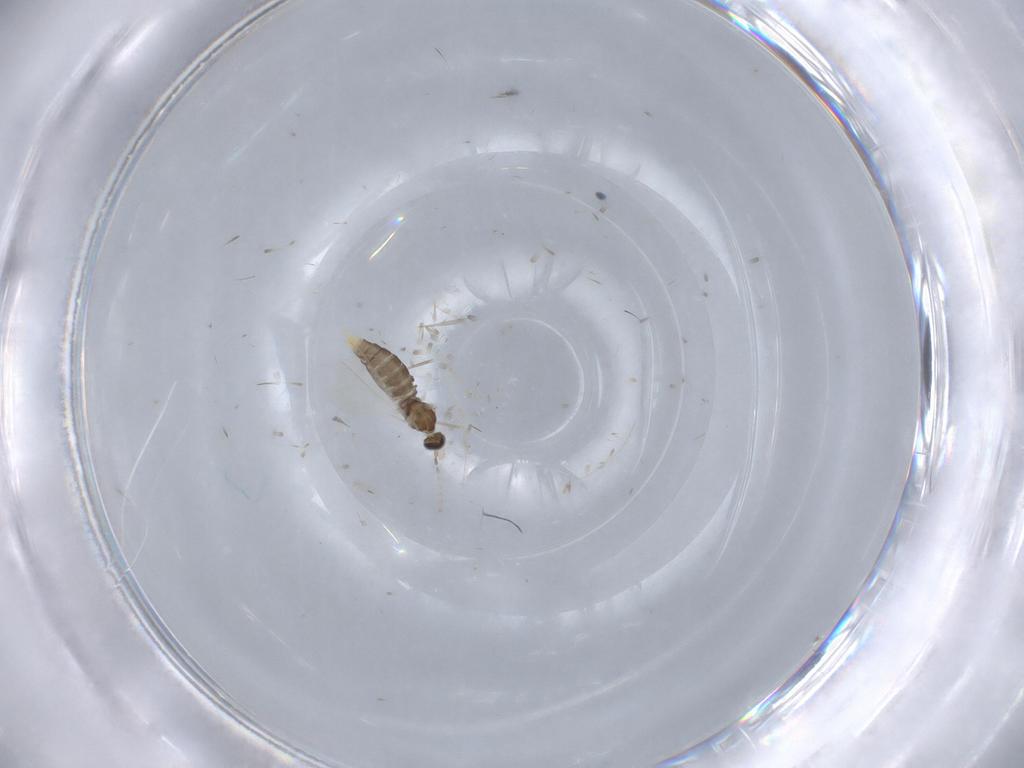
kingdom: Animalia
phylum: Arthropoda
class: Insecta
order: Diptera
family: Cecidomyiidae
